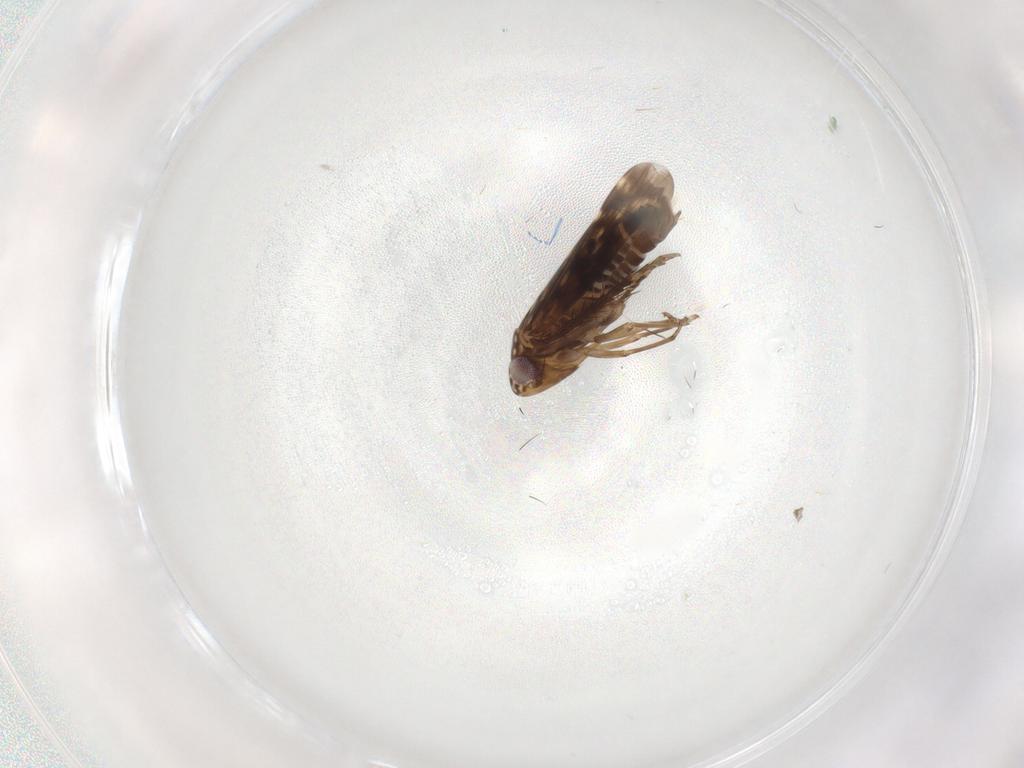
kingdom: Animalia
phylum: Arthropoda
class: Insecta
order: Hemiptera
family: Cicadellidae
